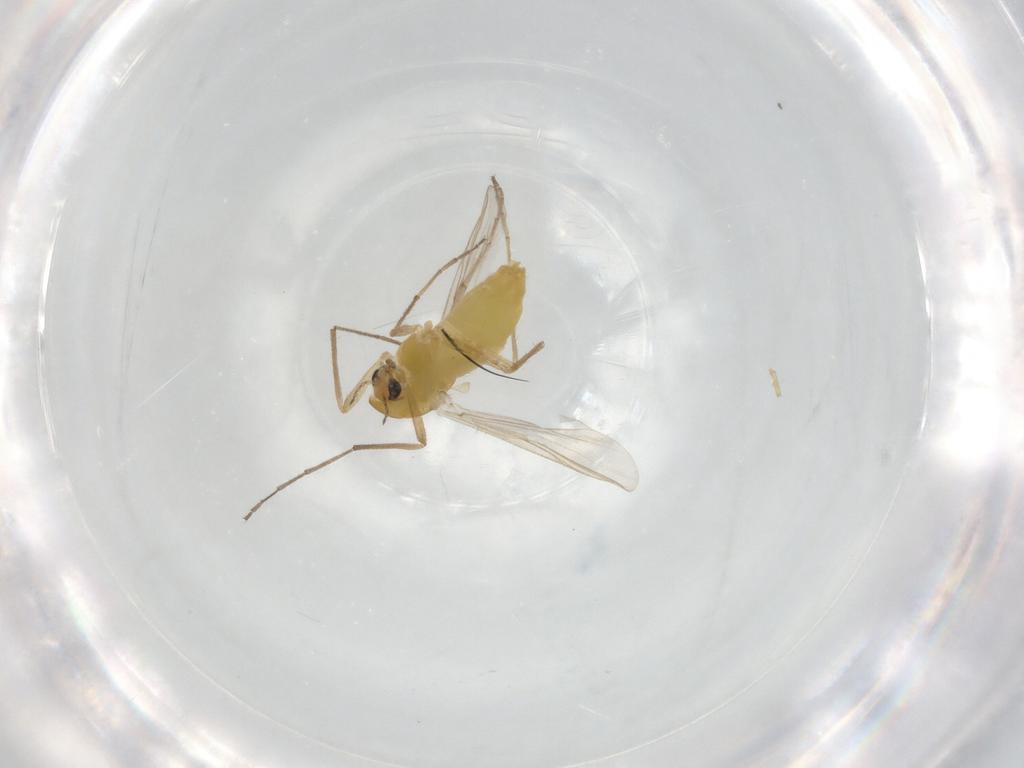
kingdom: Animalia
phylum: Arthropoda
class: Insecta
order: Diptera
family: Chironomidae
